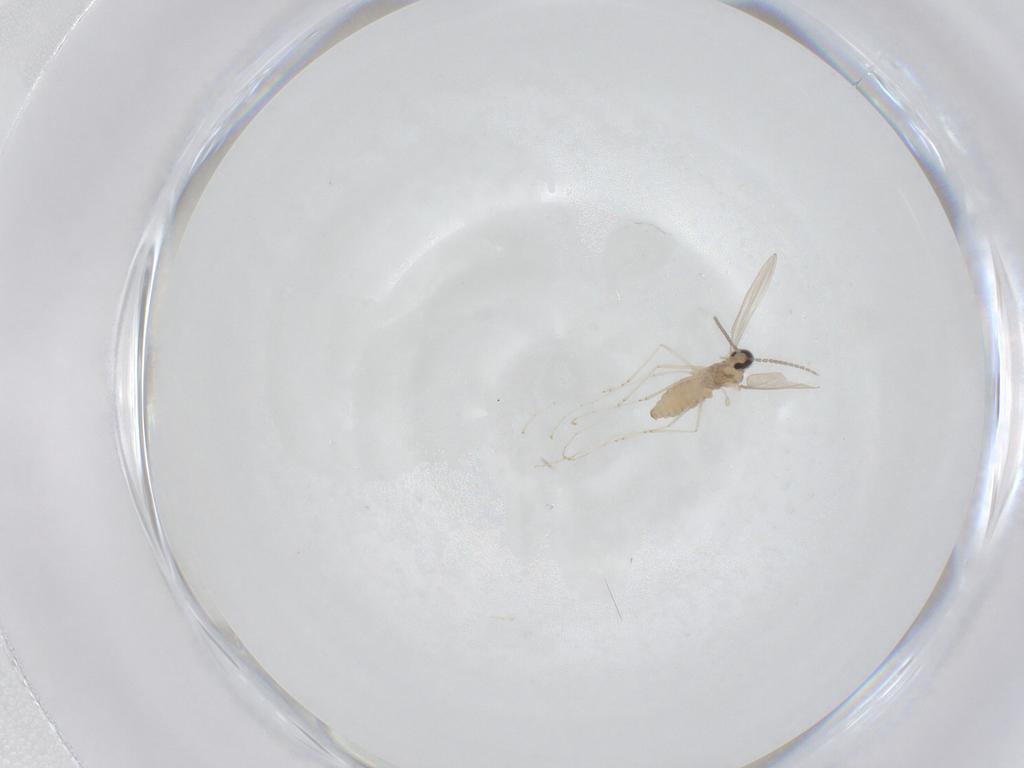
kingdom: Animalia
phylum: Arthropoda
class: Insecta
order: Diptera
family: Cecidomyiidae
